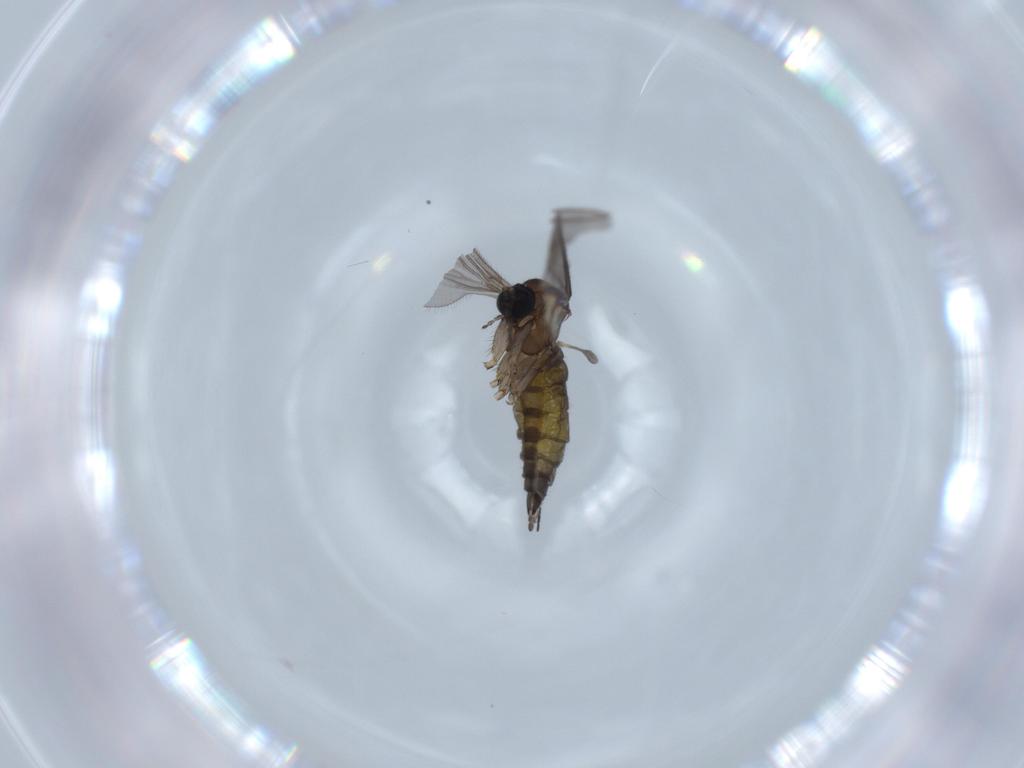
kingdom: Animalia
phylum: Arthropoda
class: Insecta
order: Diptera
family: Sciaridae
